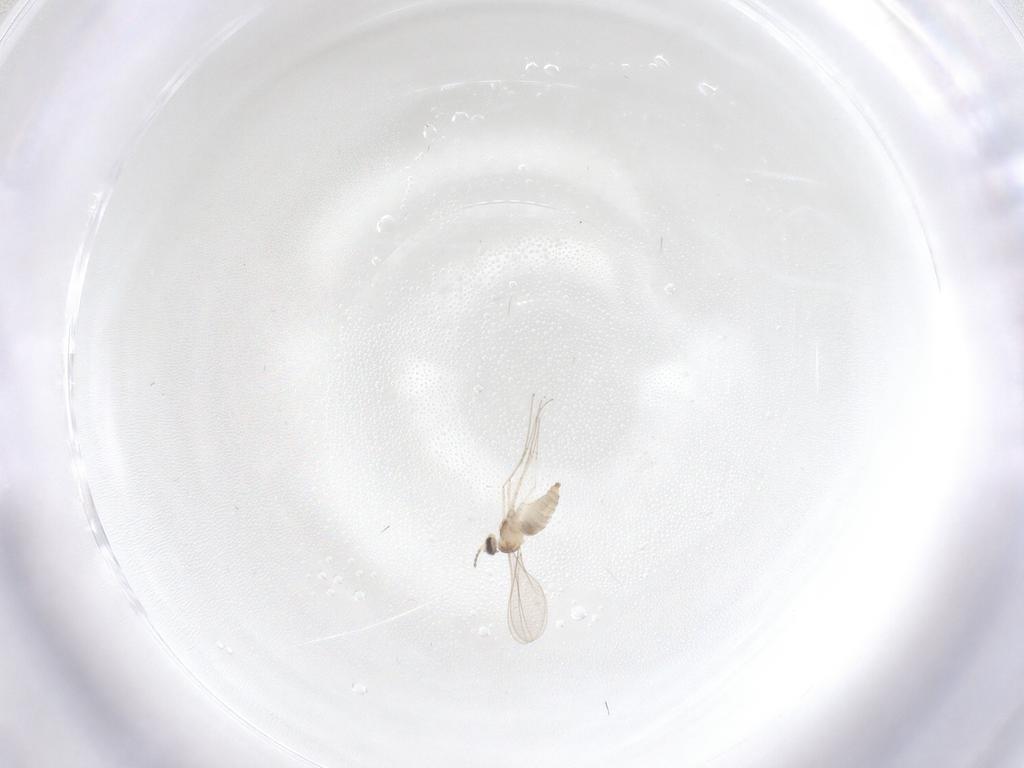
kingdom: Animalia
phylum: Arthropoda
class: Insecta
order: Diptera
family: Cecidomyiidae
